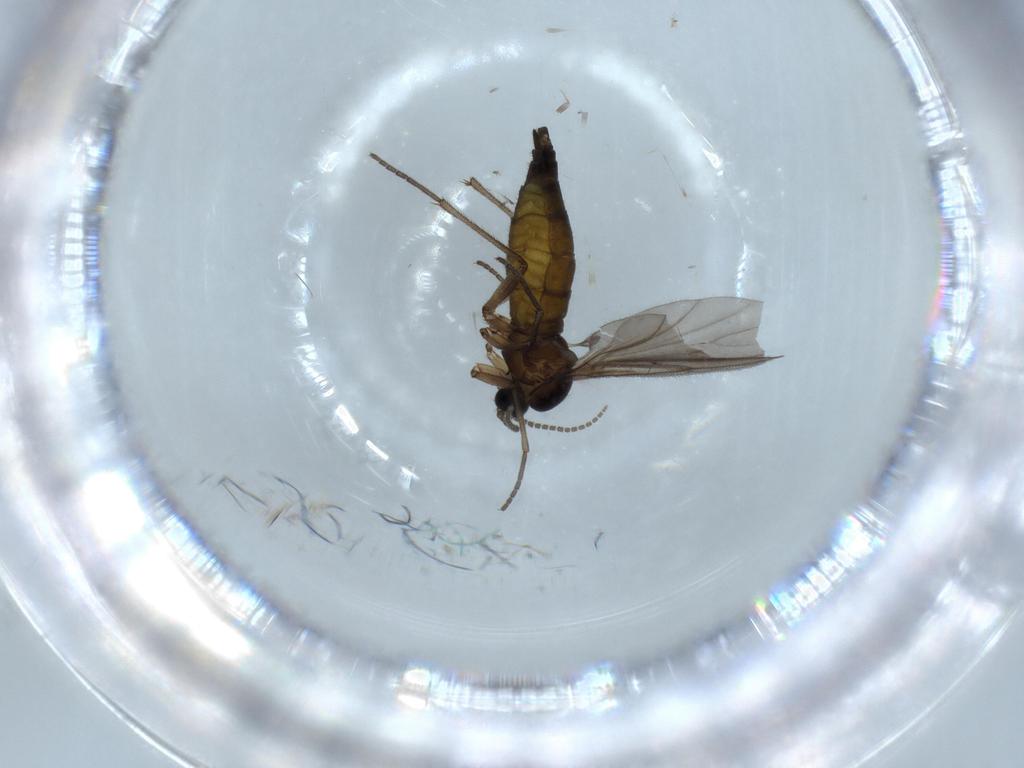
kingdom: Animalia
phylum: Arthropoda
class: Insecta
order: Diptera
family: Sciaridae
